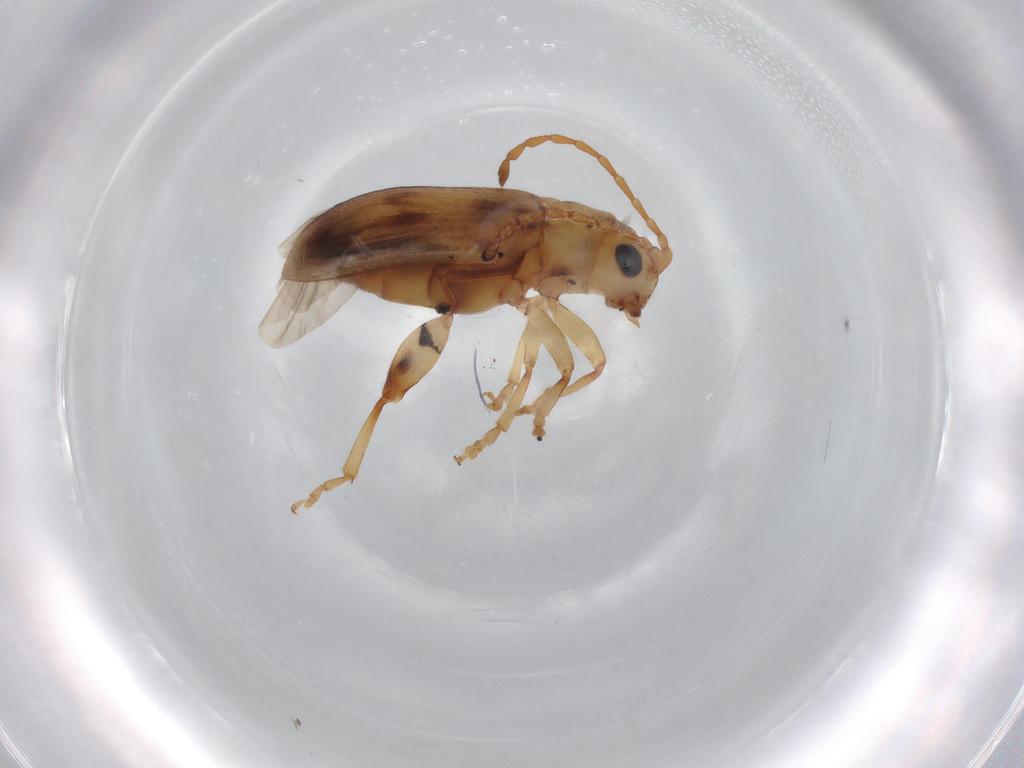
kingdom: Animalia
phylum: Arthropoda
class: Insecta
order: Coleoptera
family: Chrysomelidae
